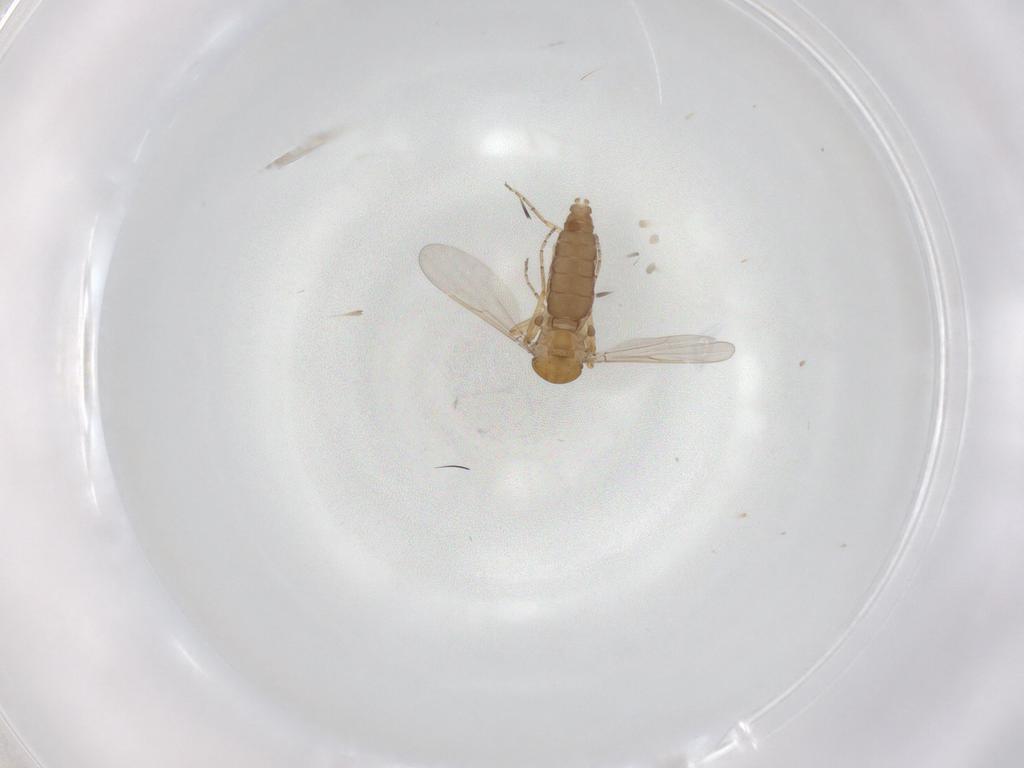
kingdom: Animalia
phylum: Arthropoda
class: Insecta
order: Diptera
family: Ceratopogonidae
